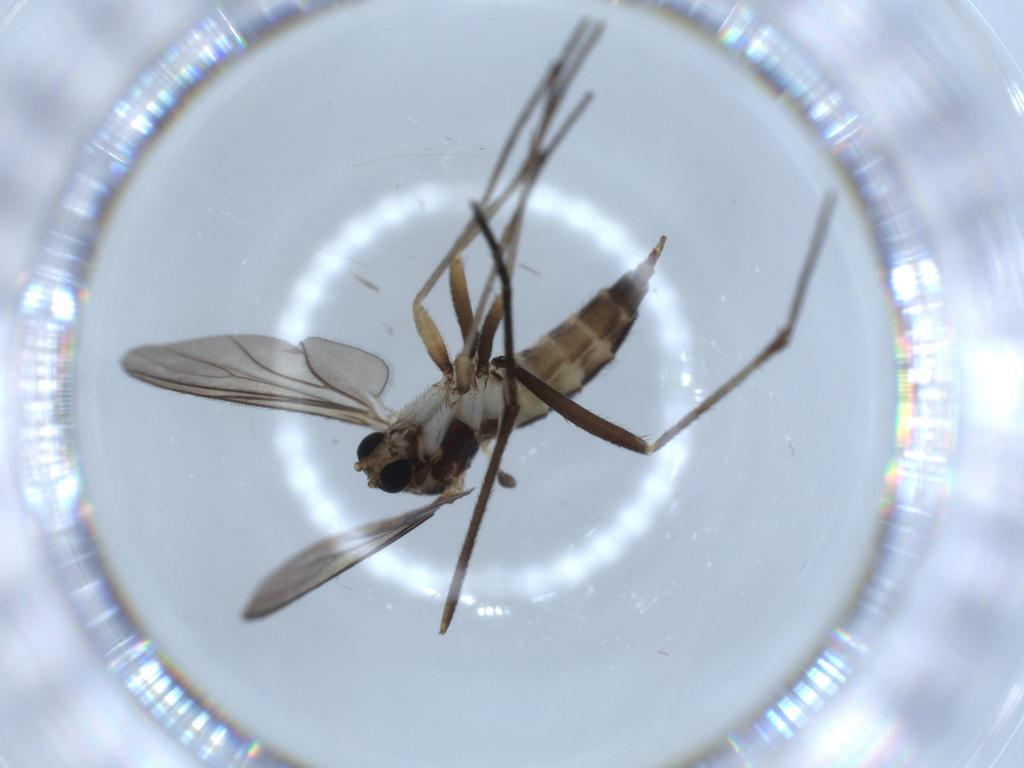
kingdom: Animalia
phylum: Arthropoda
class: Insecta
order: Diptera
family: Sciaridae
